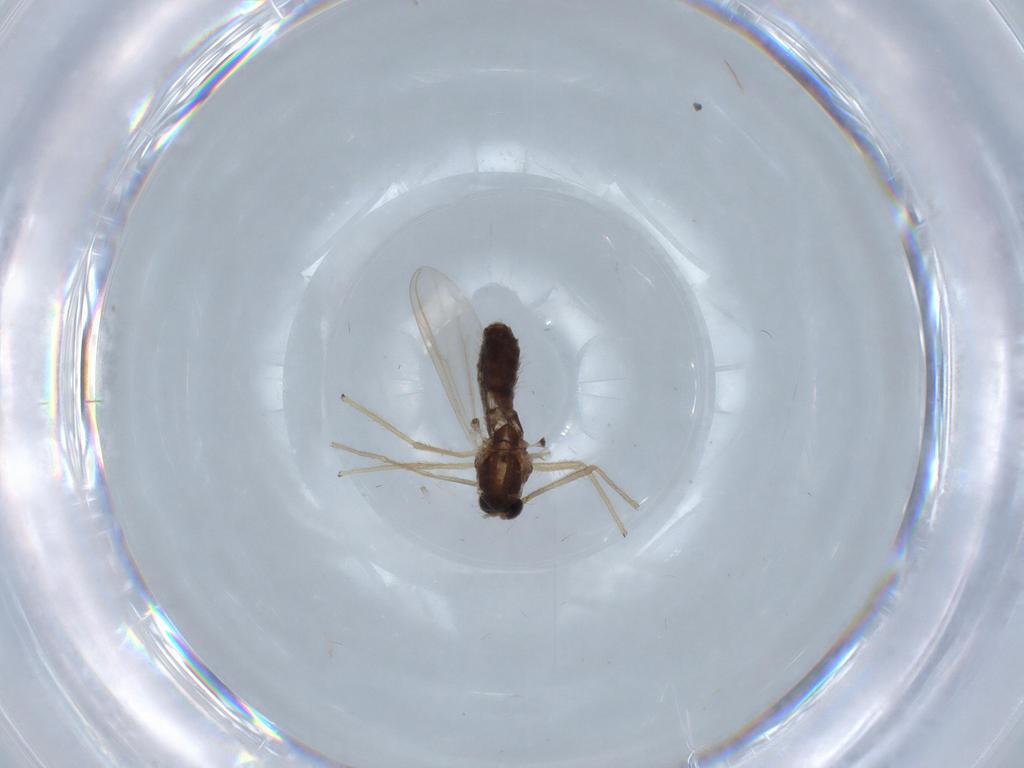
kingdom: Animalia
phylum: Arthropoda
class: Insecta
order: Diptera
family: Chironomidae
